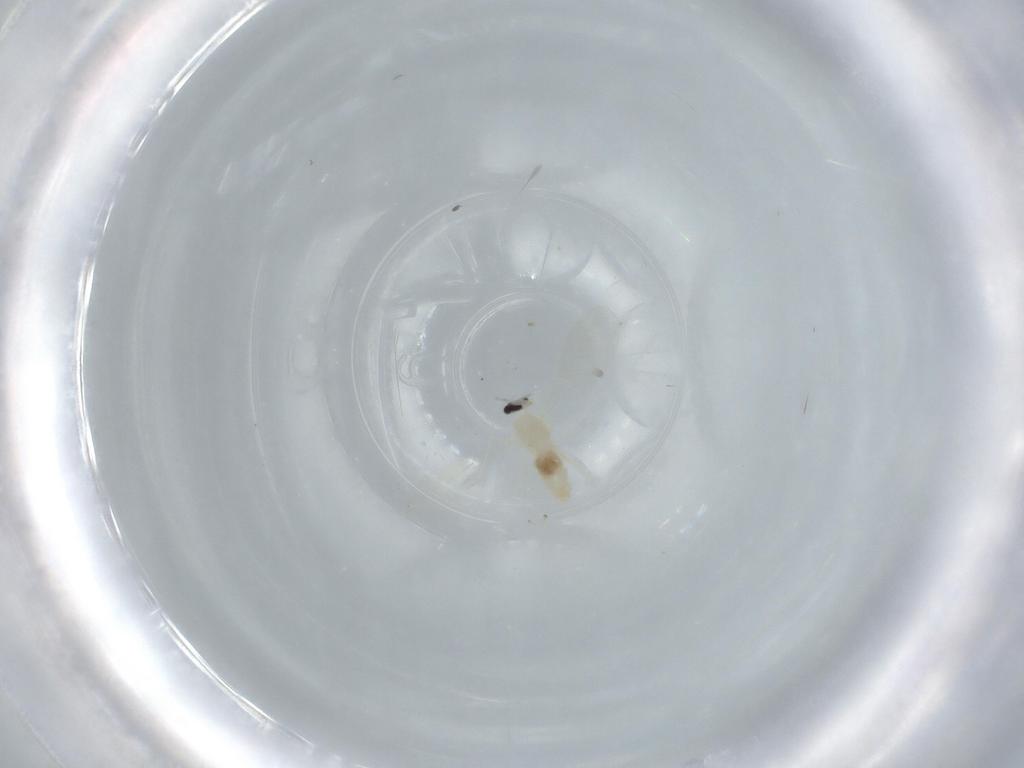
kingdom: Animalia
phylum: Arthropoda
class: Insecta
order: Diptera
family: Cecidomyiidae
